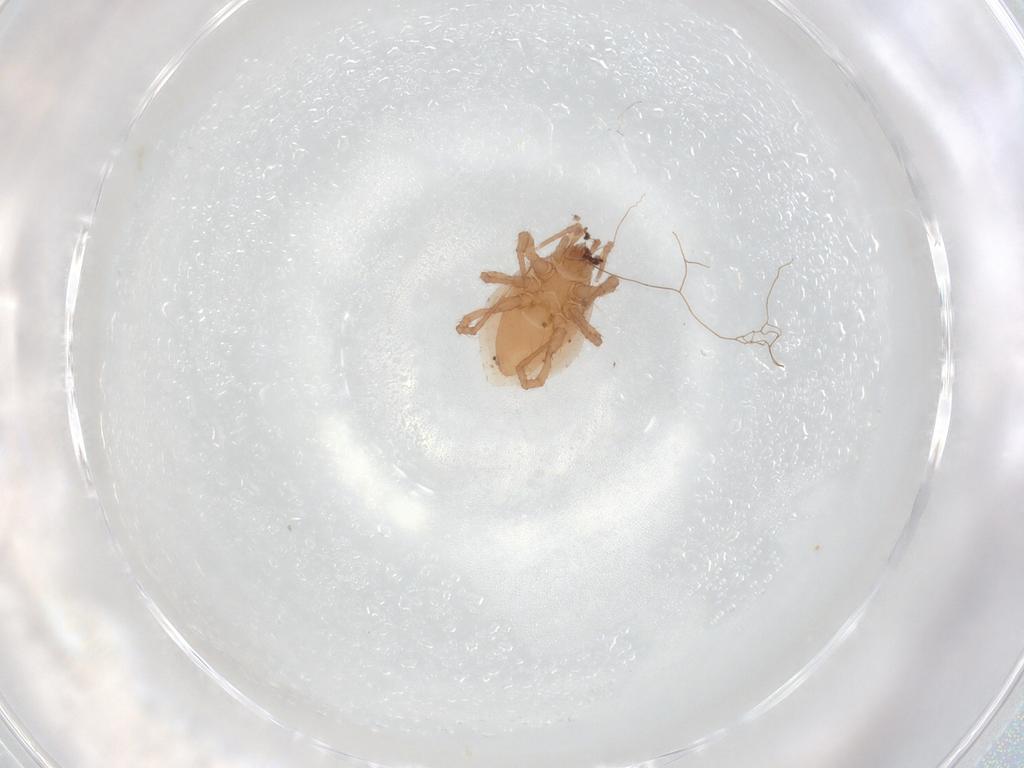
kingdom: Animalia
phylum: Arthropoda
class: Arachnida
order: Mesostigmata
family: Parasitidae
